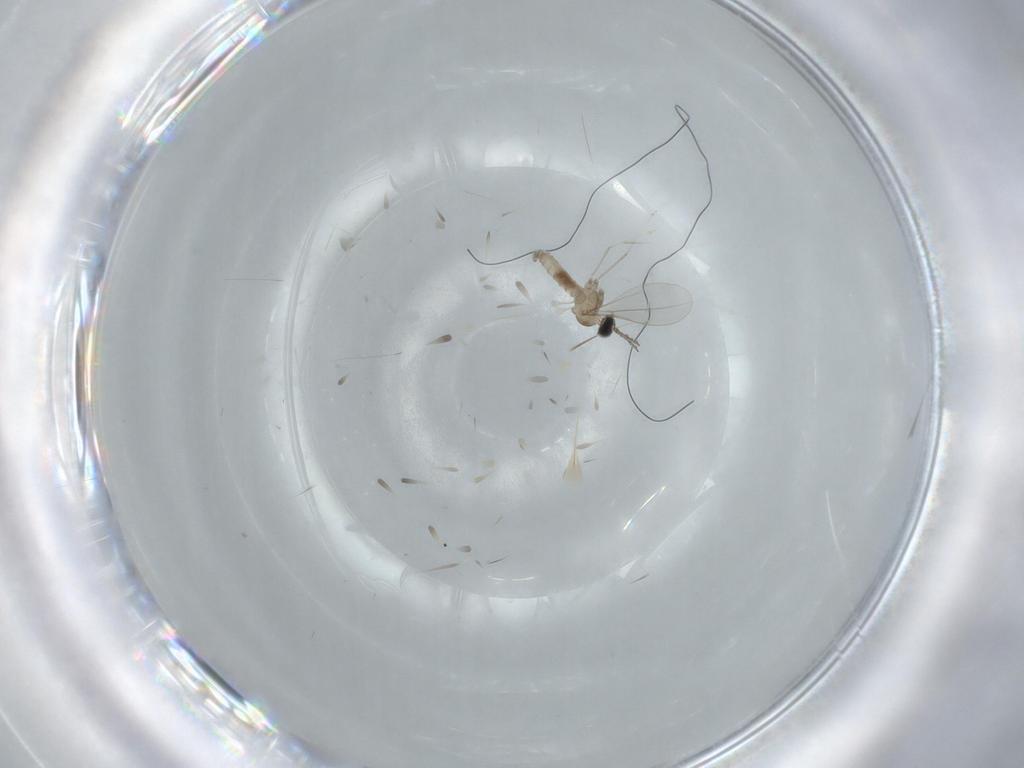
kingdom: Animalia
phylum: Arthropoda
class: Insecta
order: Diptera
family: Cecidomyiidae
